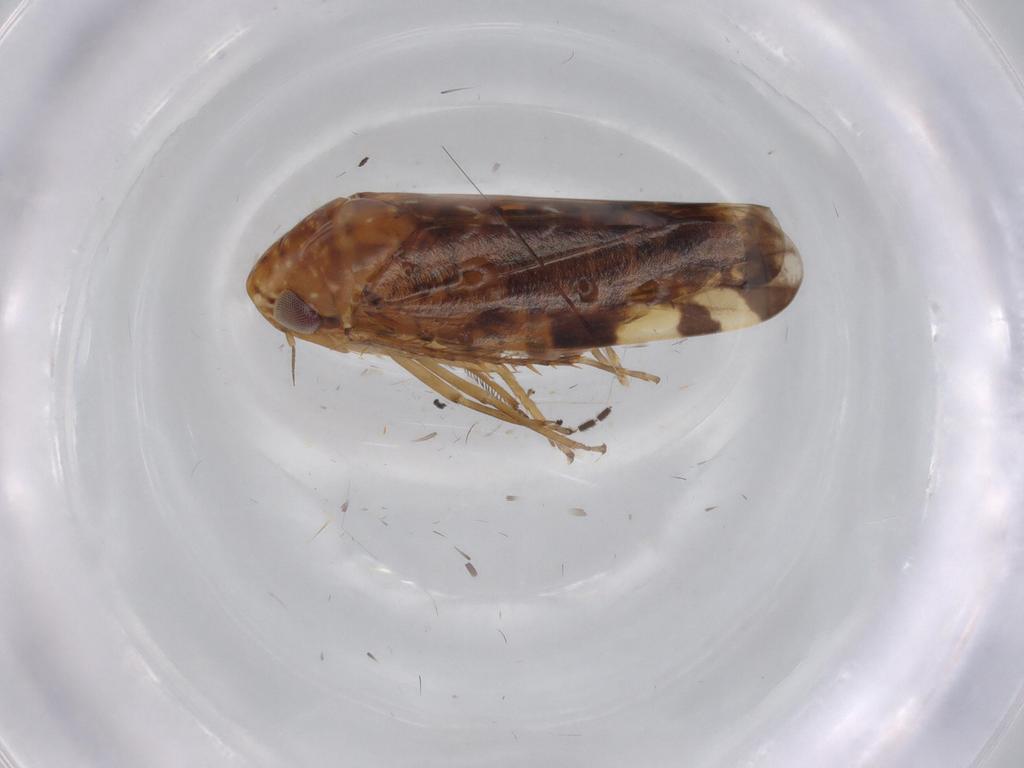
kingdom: Animalia
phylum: Arthropoda
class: Insecta
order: Hemiptera
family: Cicadellidae
